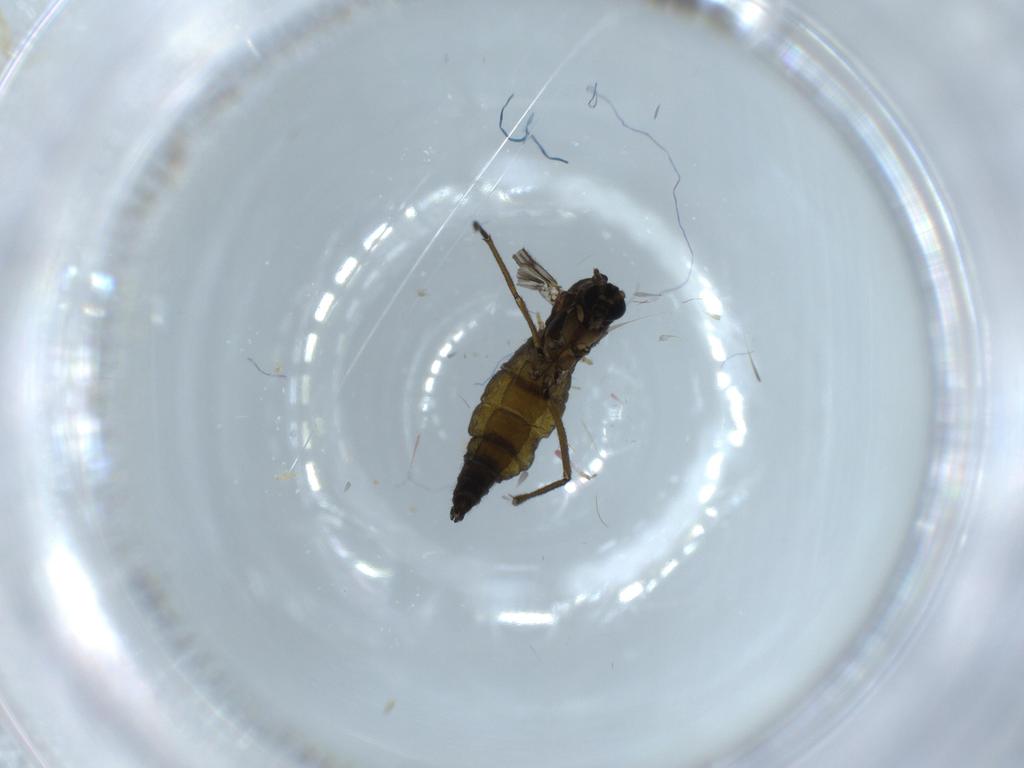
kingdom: Animalia
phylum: Arthropoda
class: Insecta
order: Diptera
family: Sciaridae
